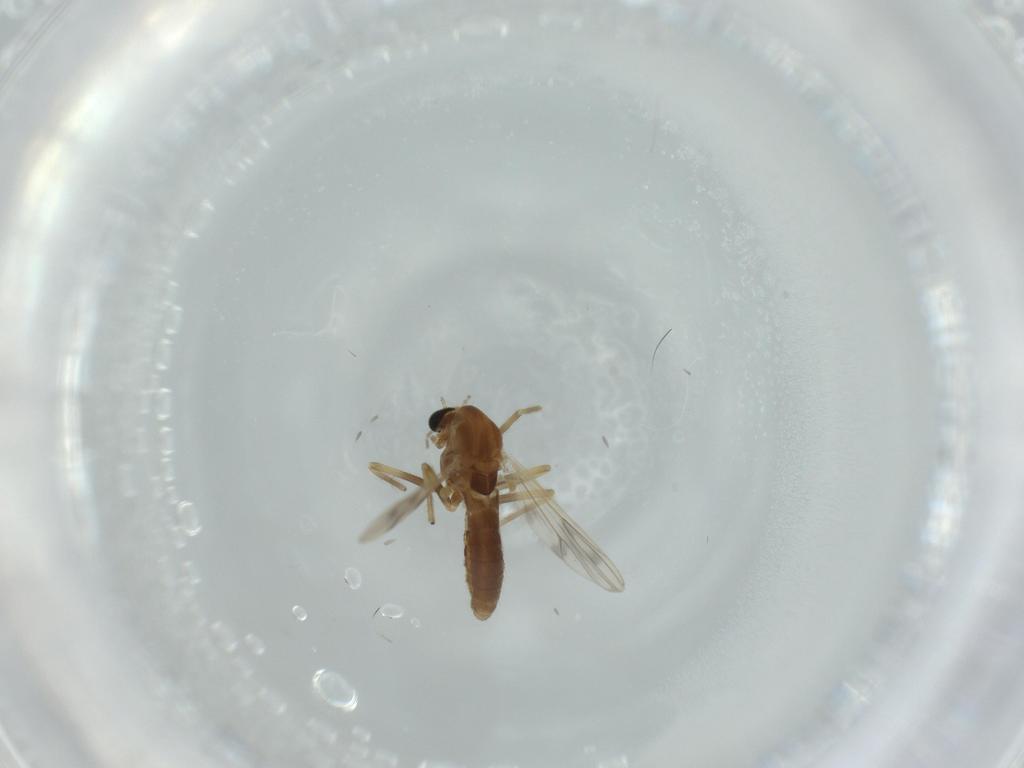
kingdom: Animalia
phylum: Arthropoda
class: Insecta
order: Diptera
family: Chironomidae
